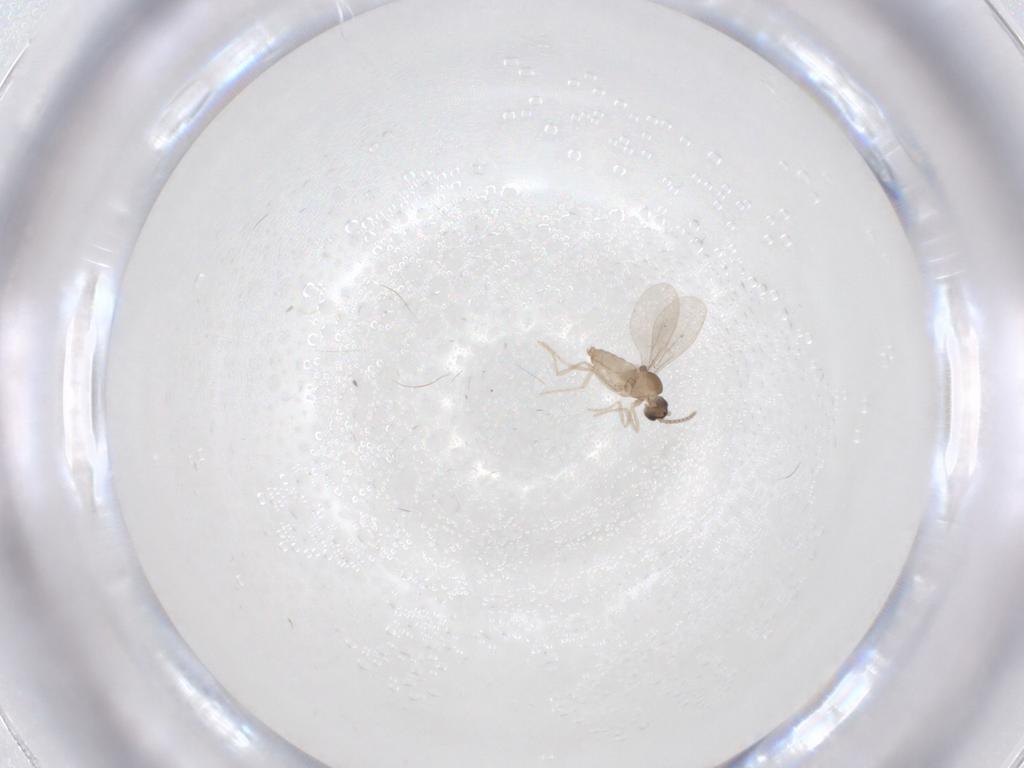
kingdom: Animalia
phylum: Arthropoda
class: Insecta
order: Diptera
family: Cecidomyiidae
